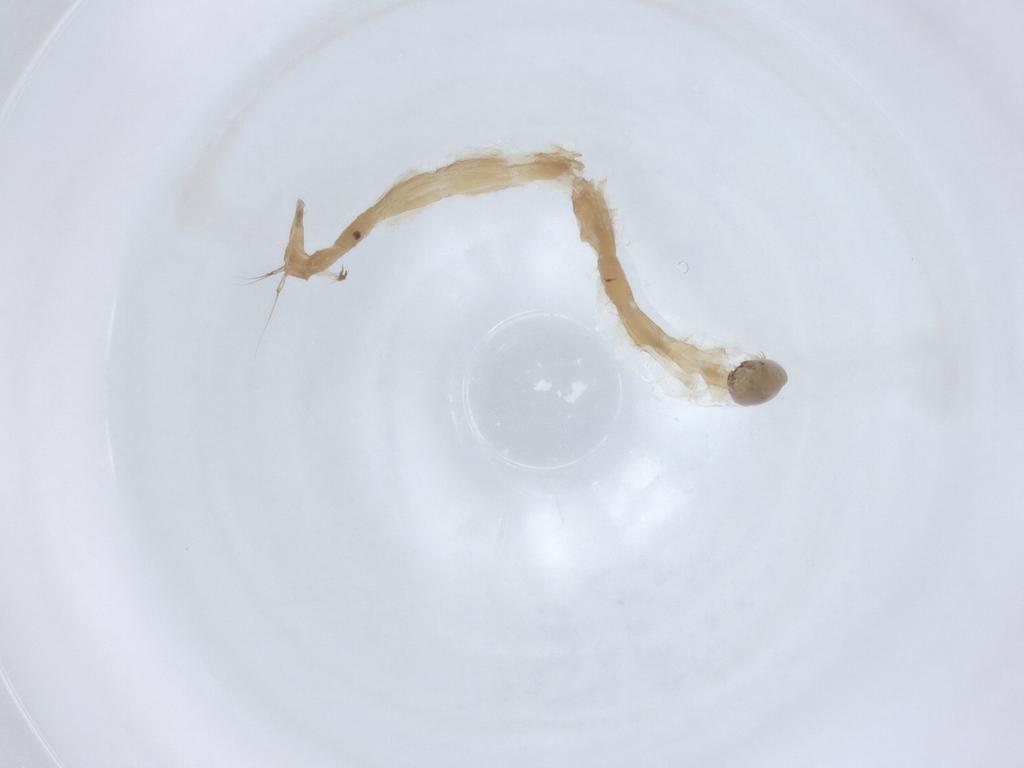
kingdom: Animalia
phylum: Arthropoda
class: Insecta
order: Diptera
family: Chironomidae
